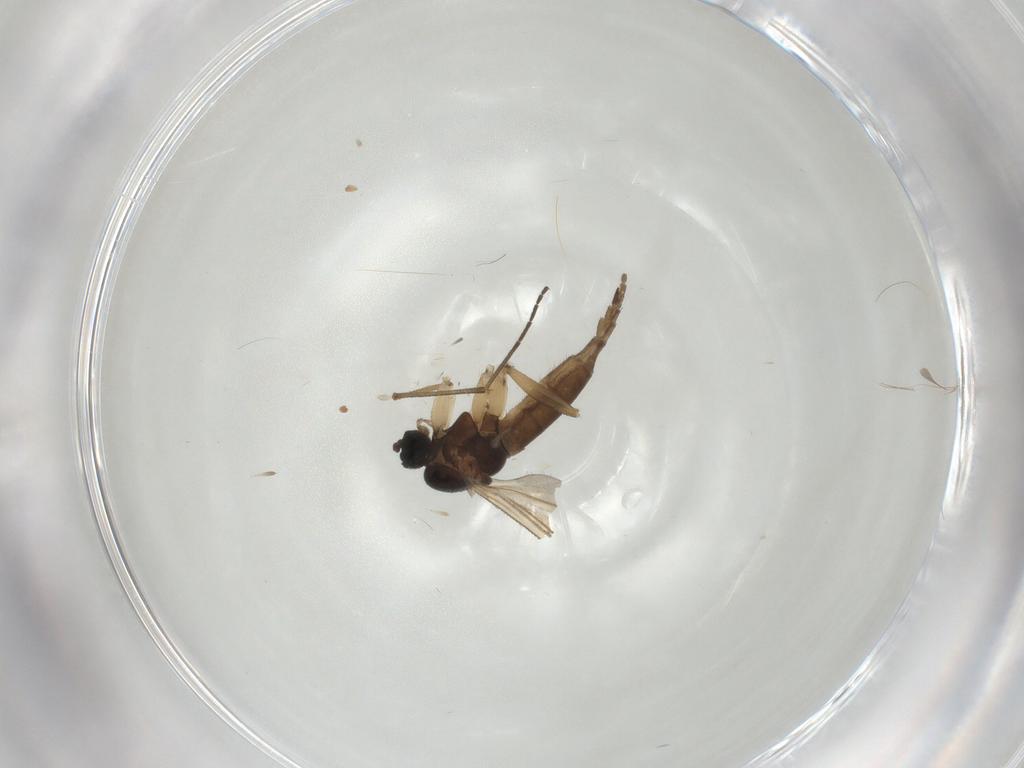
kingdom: Animalia
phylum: Arthropoda
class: Insecta
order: Diptera
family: Sciaridae
